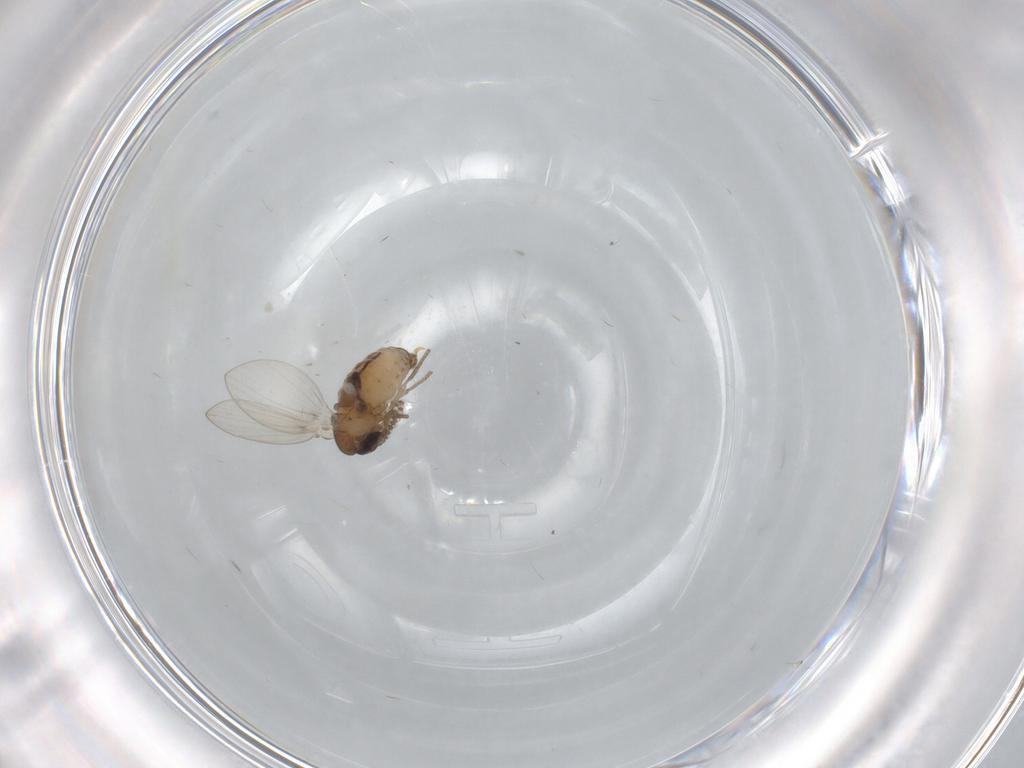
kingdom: Animalia
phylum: Arthropoda
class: Insecta
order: Diptera
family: Psychodidae
